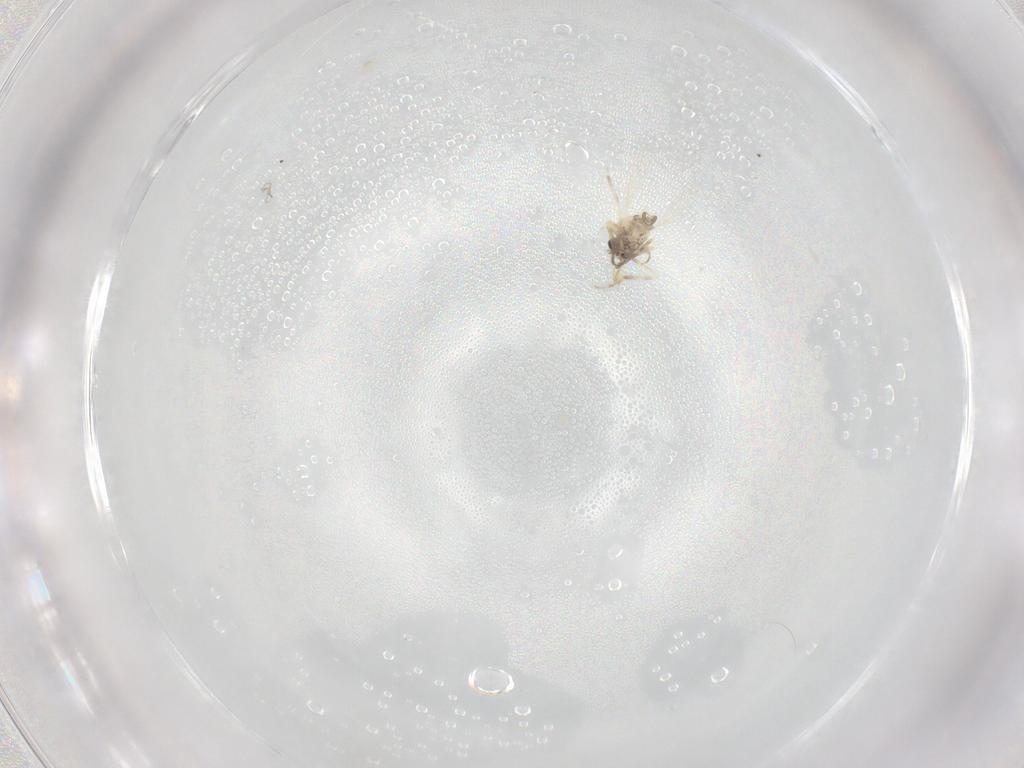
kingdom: Animalia
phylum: Arthropoda
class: Insecta
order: Diptera
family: Ceratopogonidae
